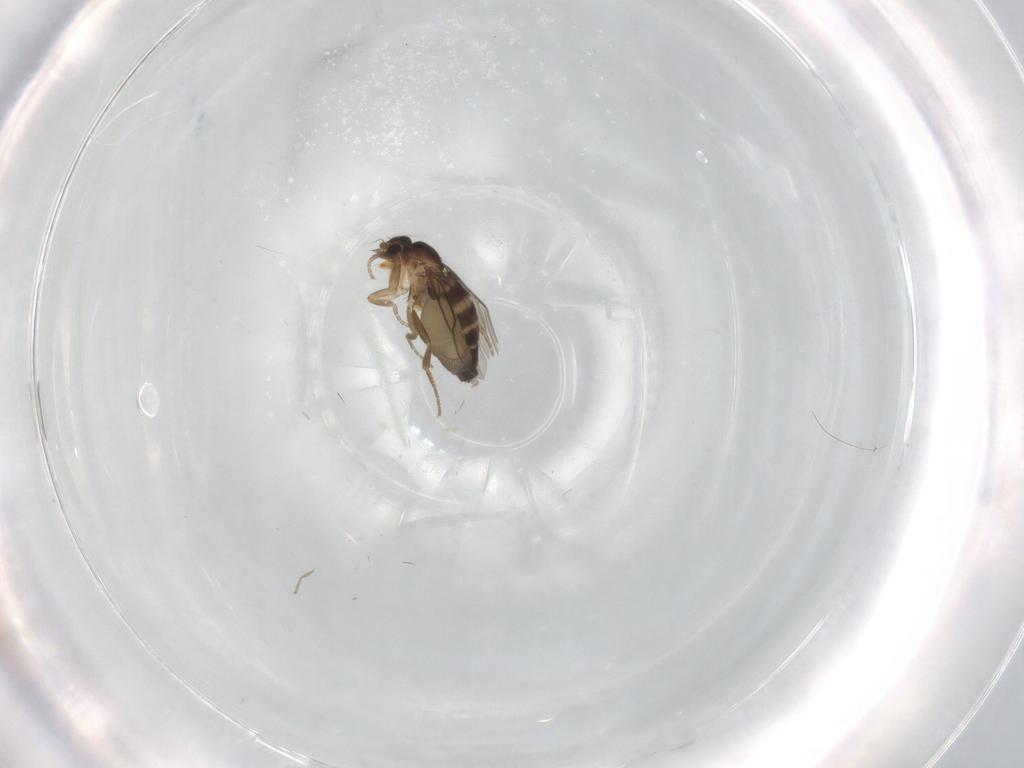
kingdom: Animalia
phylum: Arthropoda
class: Insecta
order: Diptera
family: Phoridae
